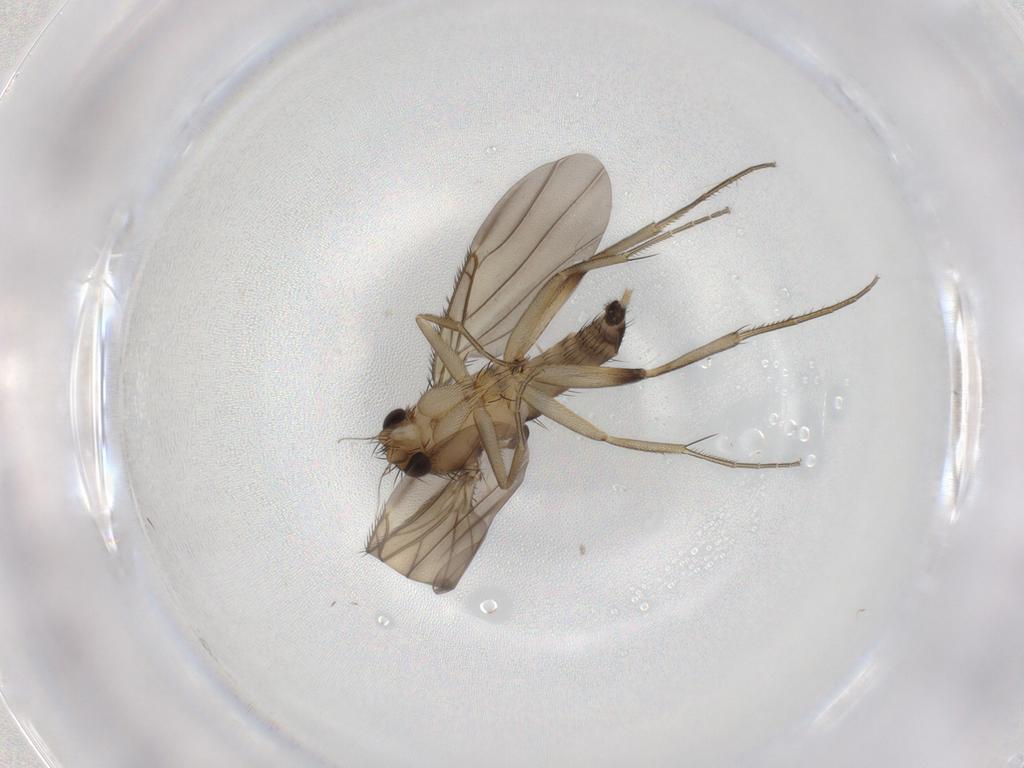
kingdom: Animalia
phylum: Arthropoda
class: Insecta
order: Diptera
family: Phoridae
